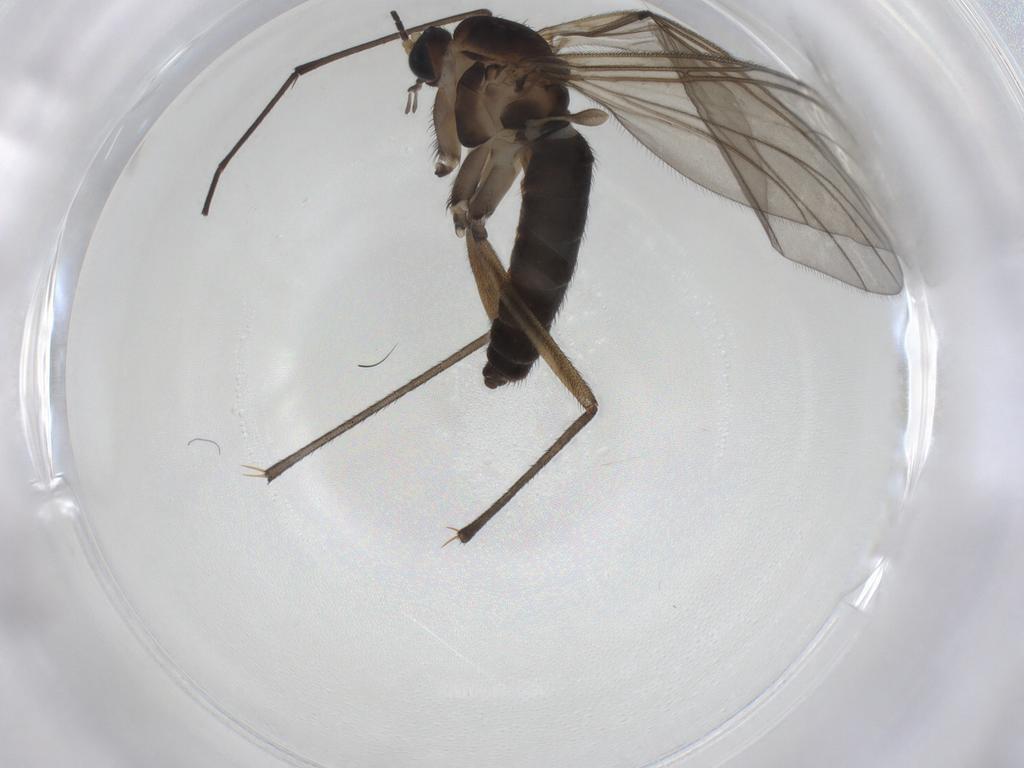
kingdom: Animalia
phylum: Arthropoda
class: Insecta
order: Diptera
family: Sciaridae
